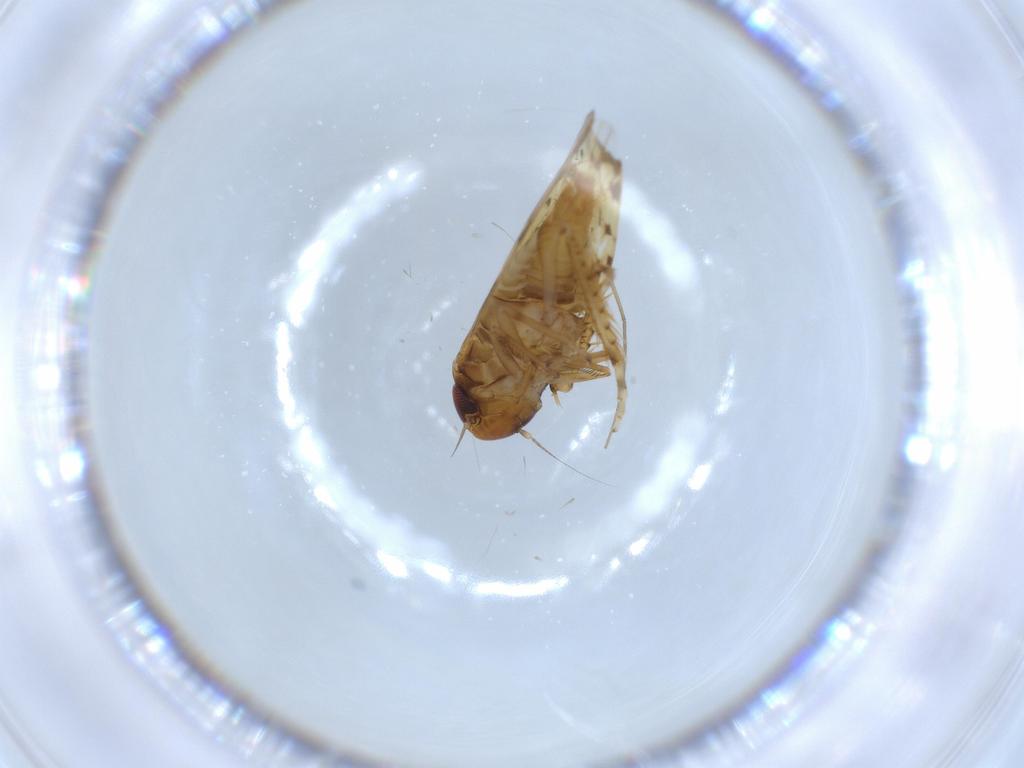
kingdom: Animalia
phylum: Arthropoda
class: Insecta
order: Hemiptera
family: Cicadellidae
